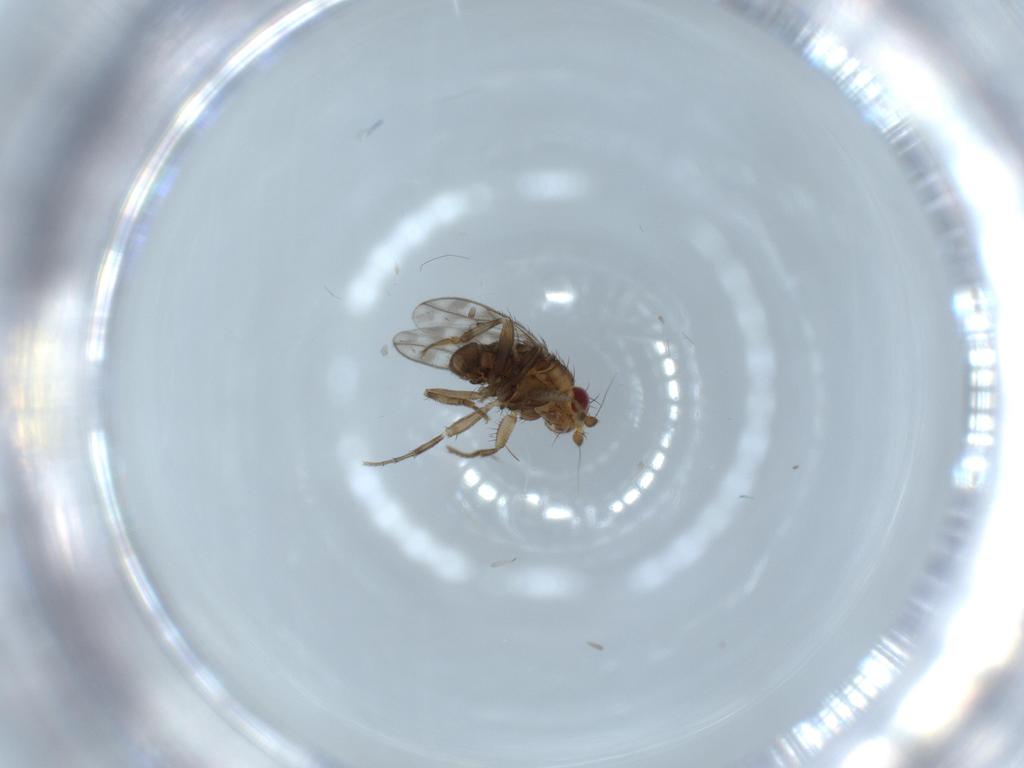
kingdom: Animalia
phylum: Arthropoda
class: Insecta
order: Diptera
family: Sphaeroceridae
